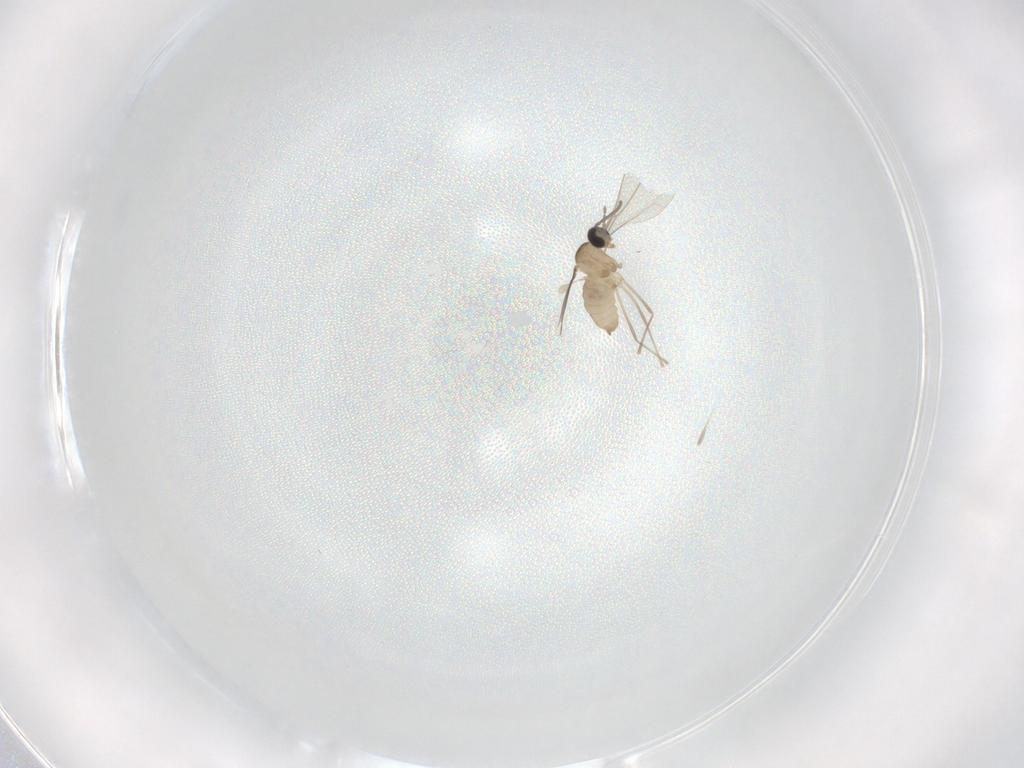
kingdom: Animalia
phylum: Arthropoda
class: Insecta
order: Diptera
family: Cecidomyiidae
